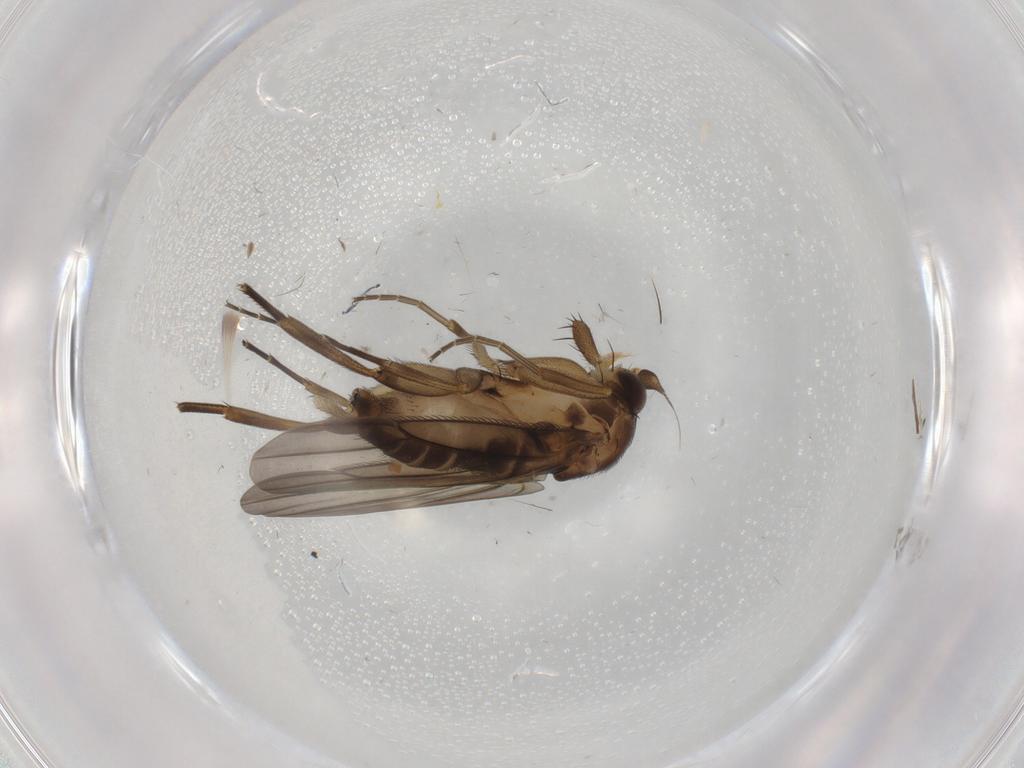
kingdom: Animalia
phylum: Arthropoda
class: Insecta
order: Diptera
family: Phoridae
